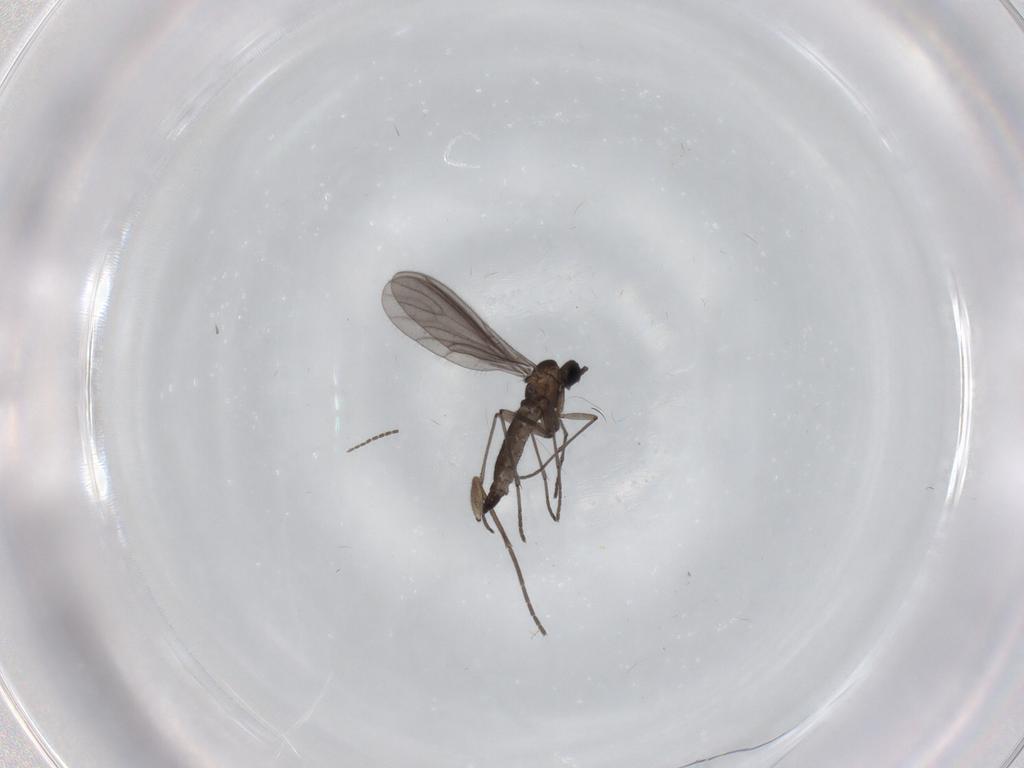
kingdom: Animalia
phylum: Arthropoda
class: Insecta
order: Diptera
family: Sciaridae
